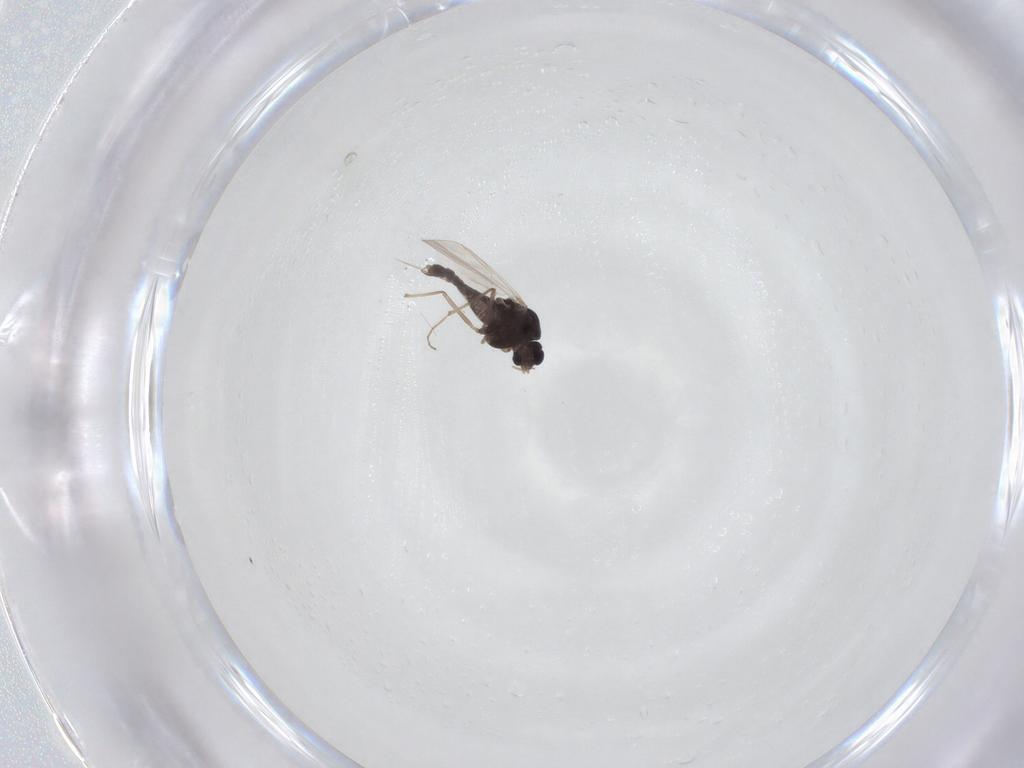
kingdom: Animalia
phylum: Arthropoda
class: Insecta
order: Diptera
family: Chironomidae
